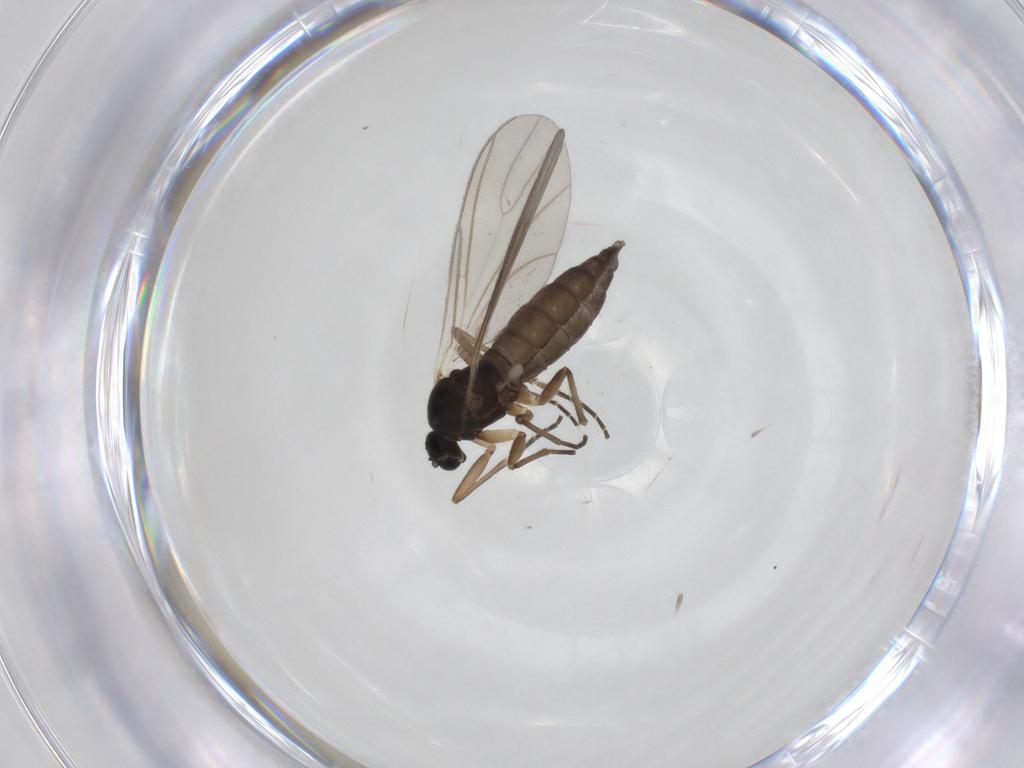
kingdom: Animalia
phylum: Arthropoda
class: Insecta
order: Diptera
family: Sciaridae
